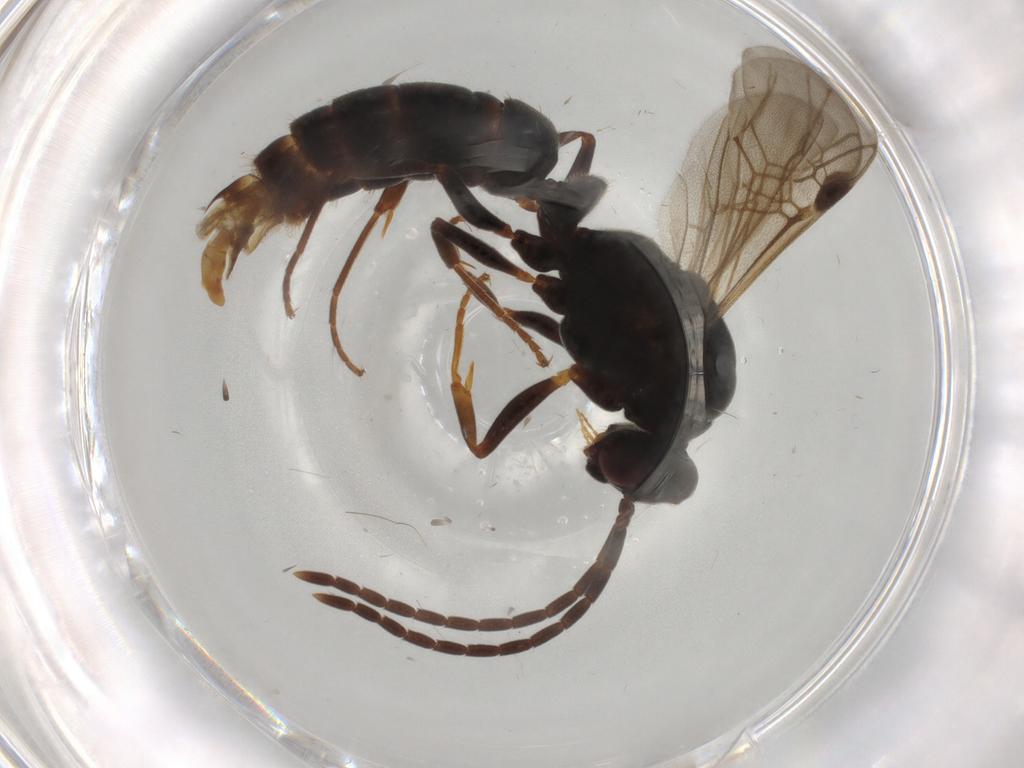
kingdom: Animalia
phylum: Arthropoda
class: Insecta
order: Hymenoptera
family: Formicidae
